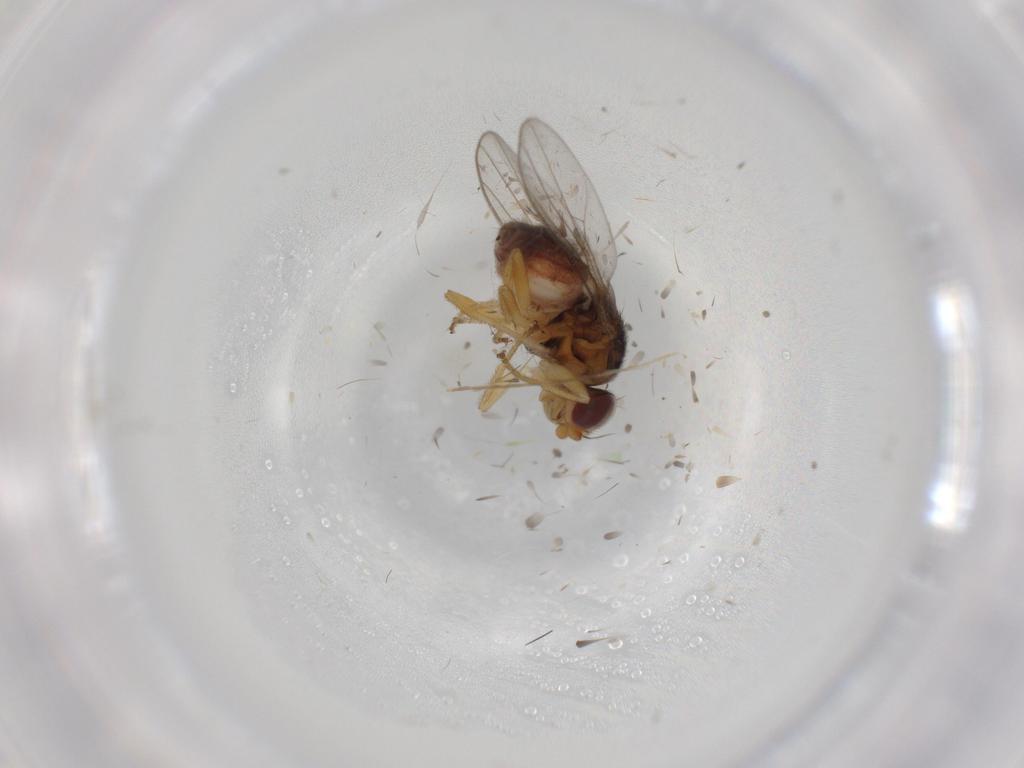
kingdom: Animalia
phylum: Arthropoda
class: Insecta
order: Diptera
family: Chloropidae
